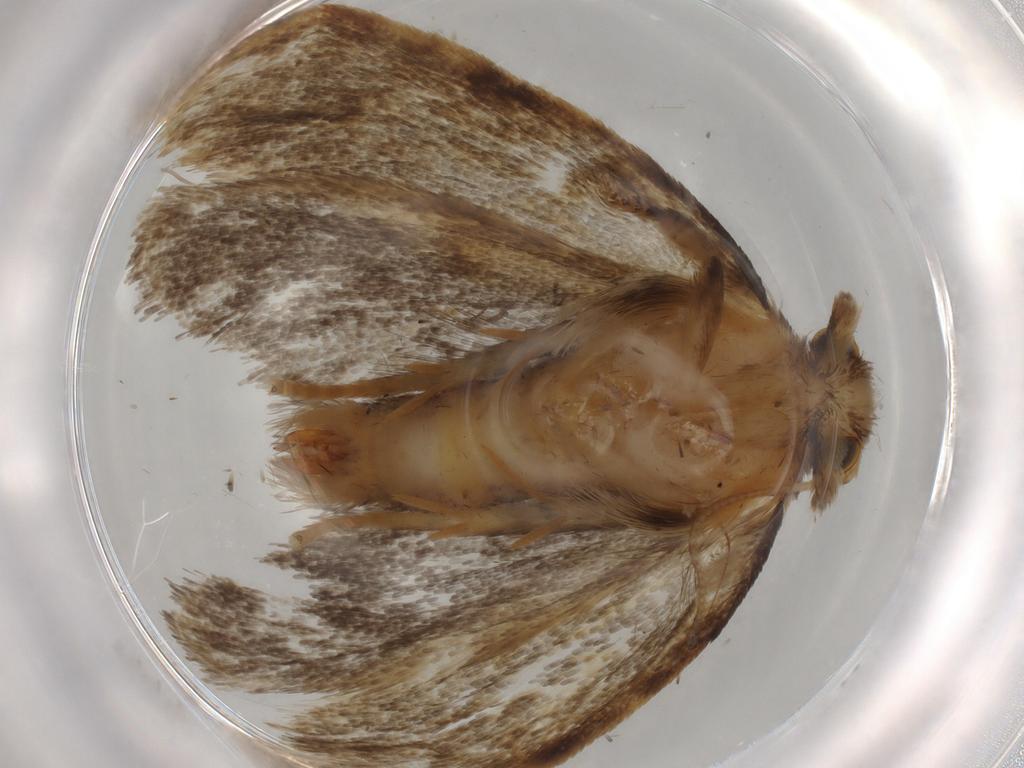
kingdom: Animalia
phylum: Arthropoda
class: Insecta
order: Lepidoptera
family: Tineidae
